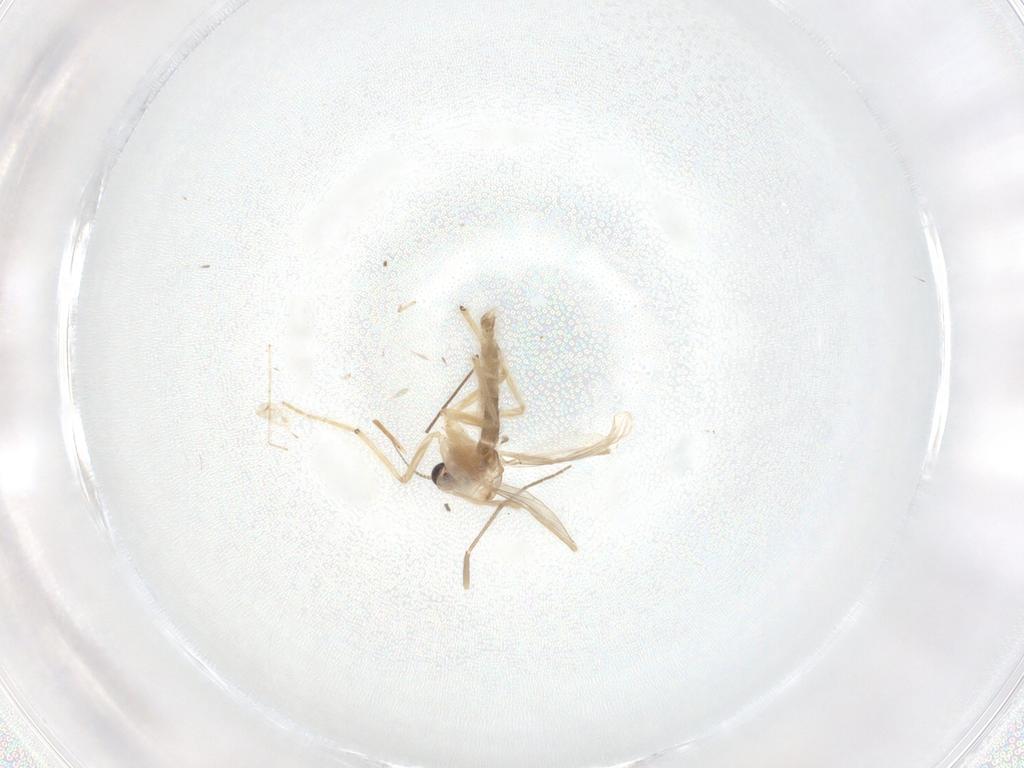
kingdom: Animalia
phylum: Arthropoda
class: Insecta
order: Diptera
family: Chironomidae
